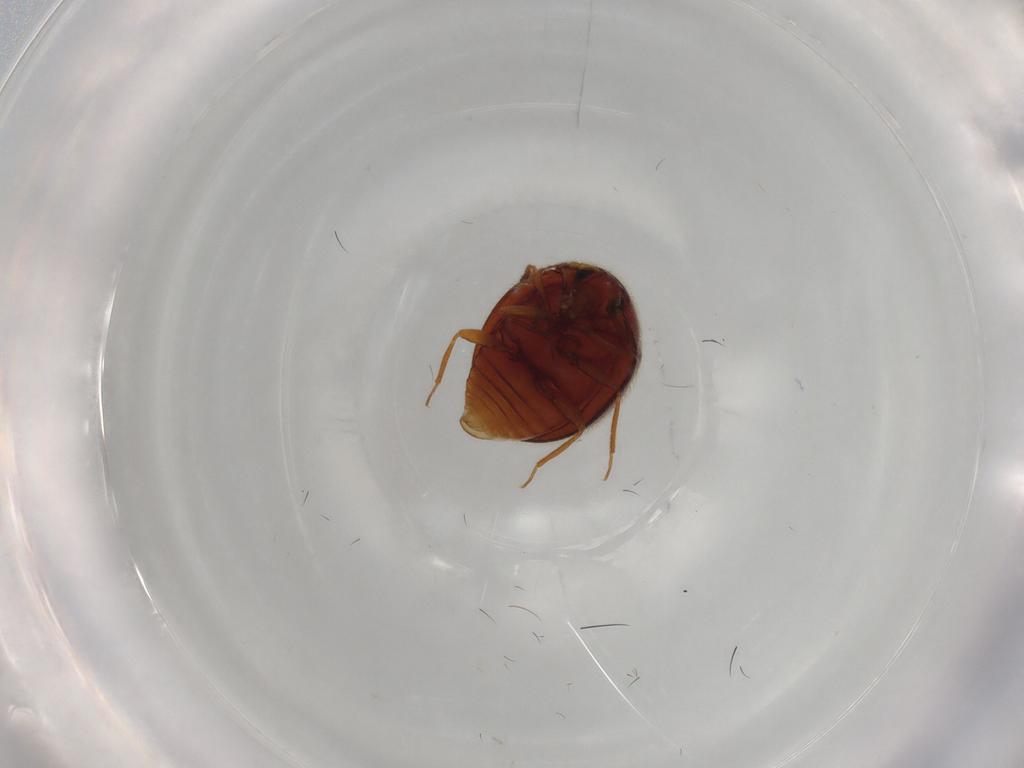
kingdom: Animalia
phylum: Arthropoda
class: Insecta
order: Coleoptera
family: Anamorphidae
